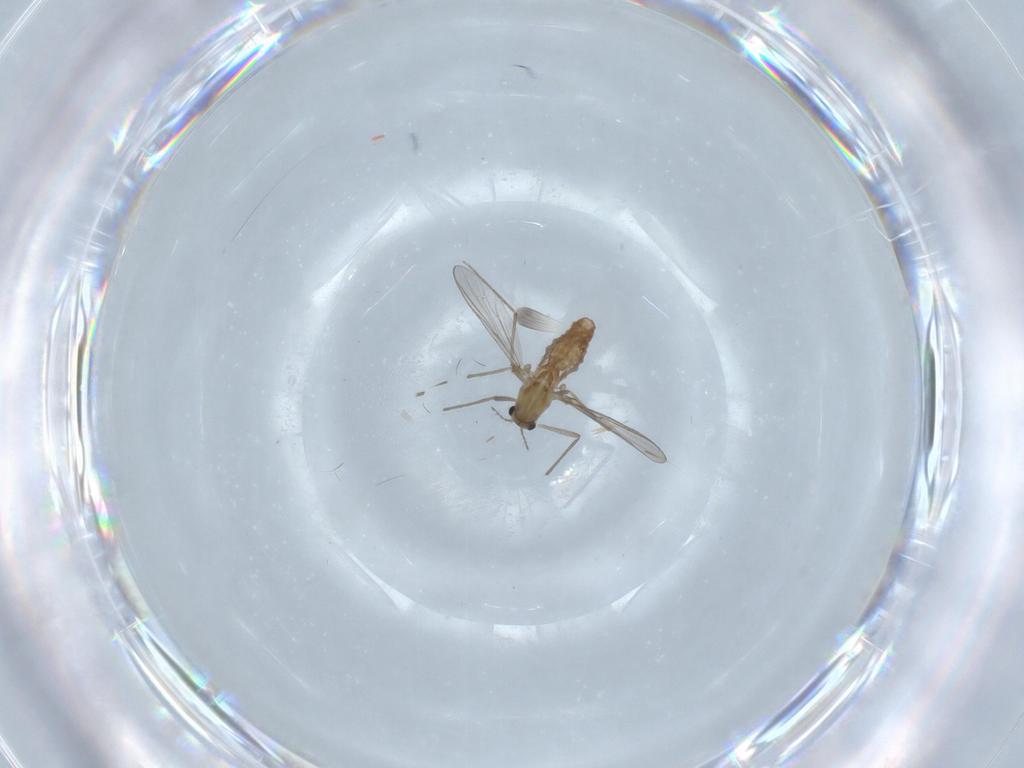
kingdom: Animalia
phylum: Arthropoda
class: Insecta
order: Diptera
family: Chironomidae
